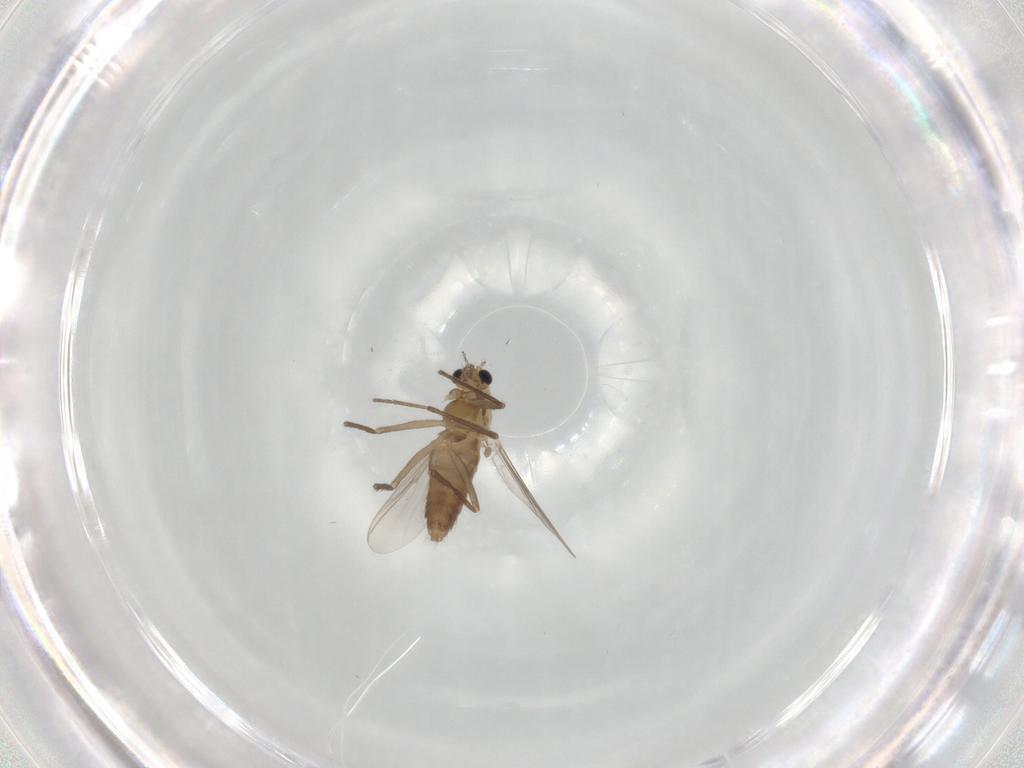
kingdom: Animalia
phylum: Arthropoda
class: Insecta
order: Diptera
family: Chironomidae
